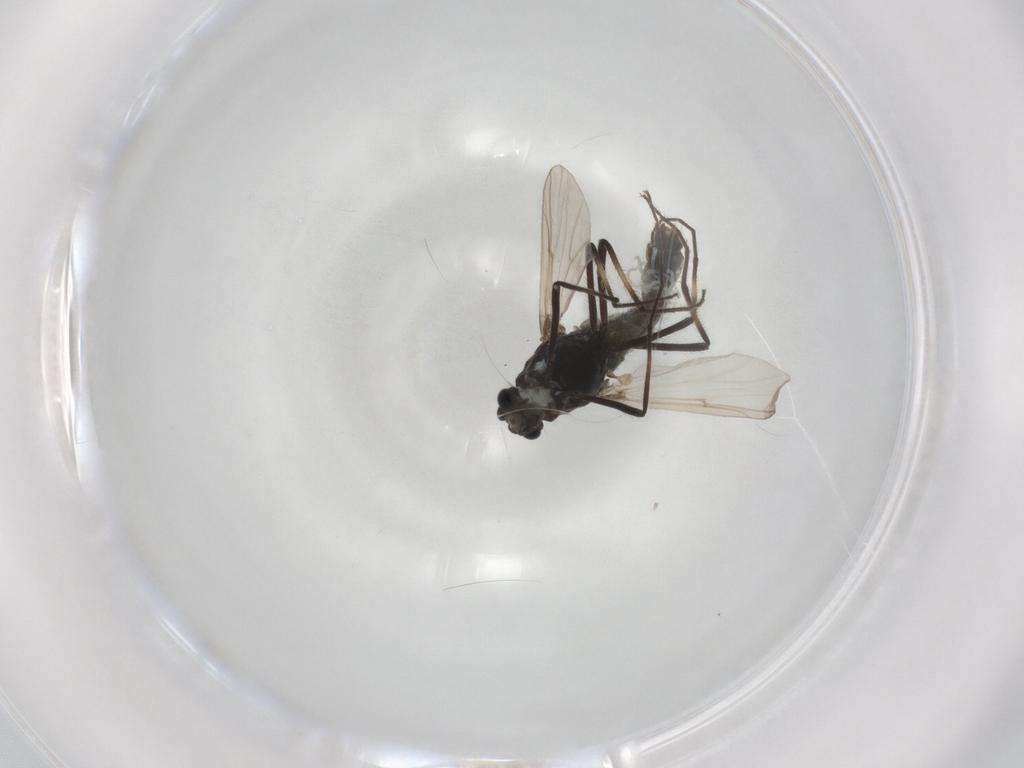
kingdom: Animalia
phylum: Arthropoda
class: Insecta
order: Diptera
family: Chironomidae
